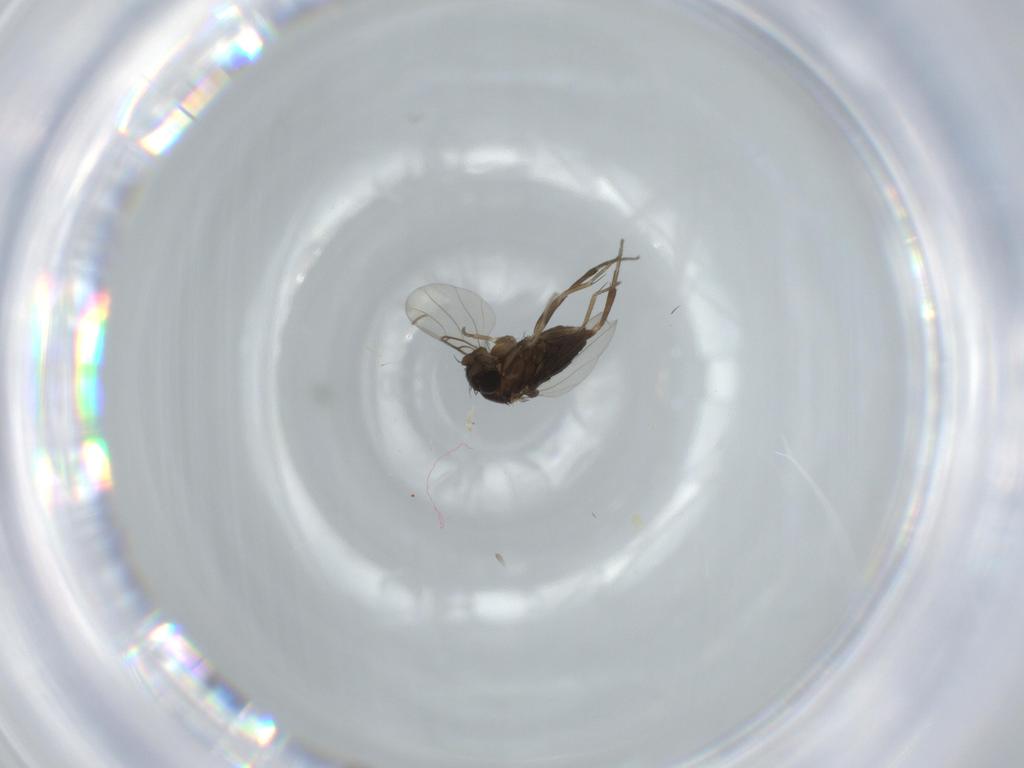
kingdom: Animalia
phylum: Arthropoda
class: Insecta
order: Diptera
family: Phoridae
